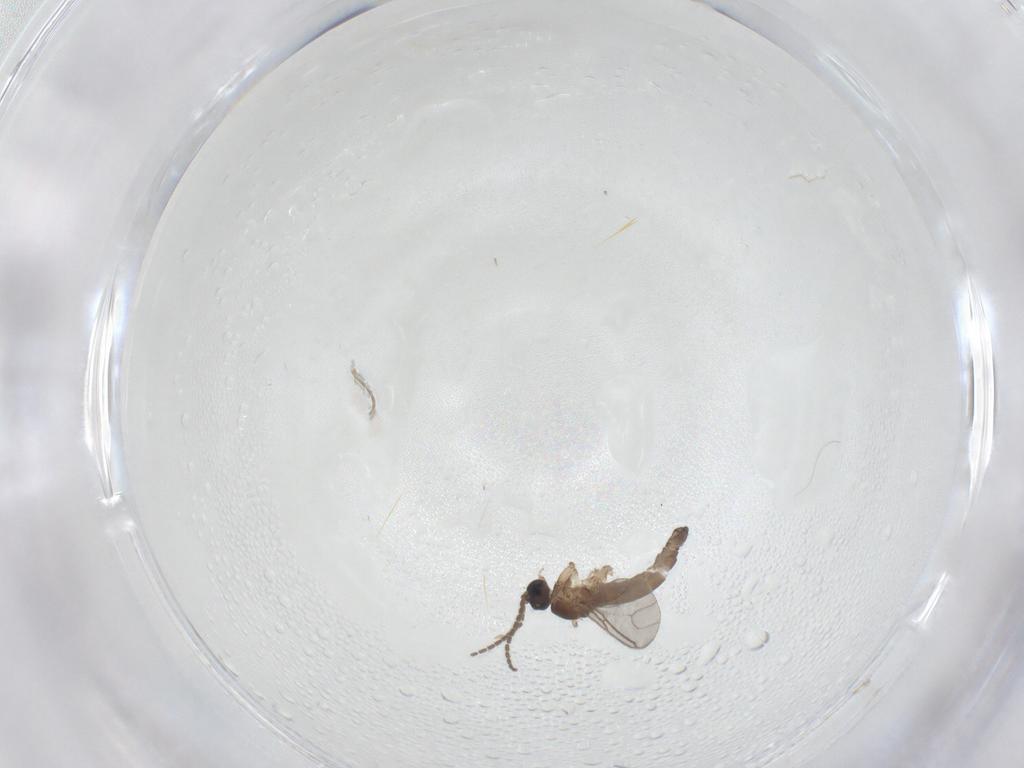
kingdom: Animalia
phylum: Arthropoda
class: Insecta
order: Diptera
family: Sciaridae
